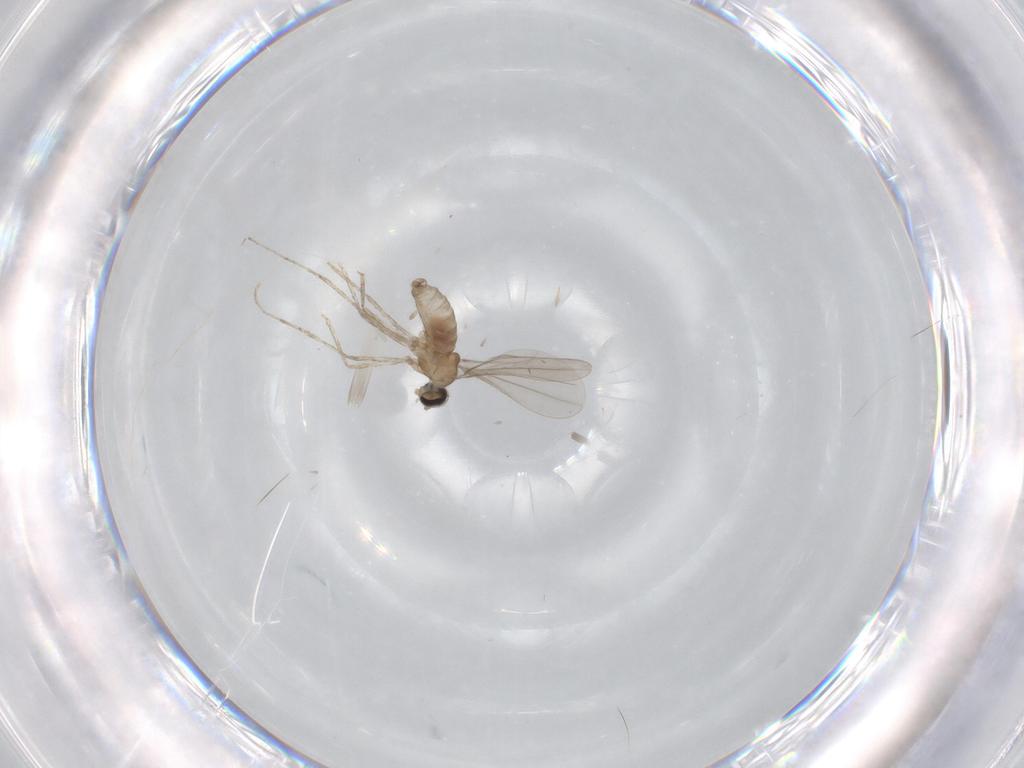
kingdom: Animalia
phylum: Arthropoda
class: Insecta
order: Diptera
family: Cecidomyiidae
